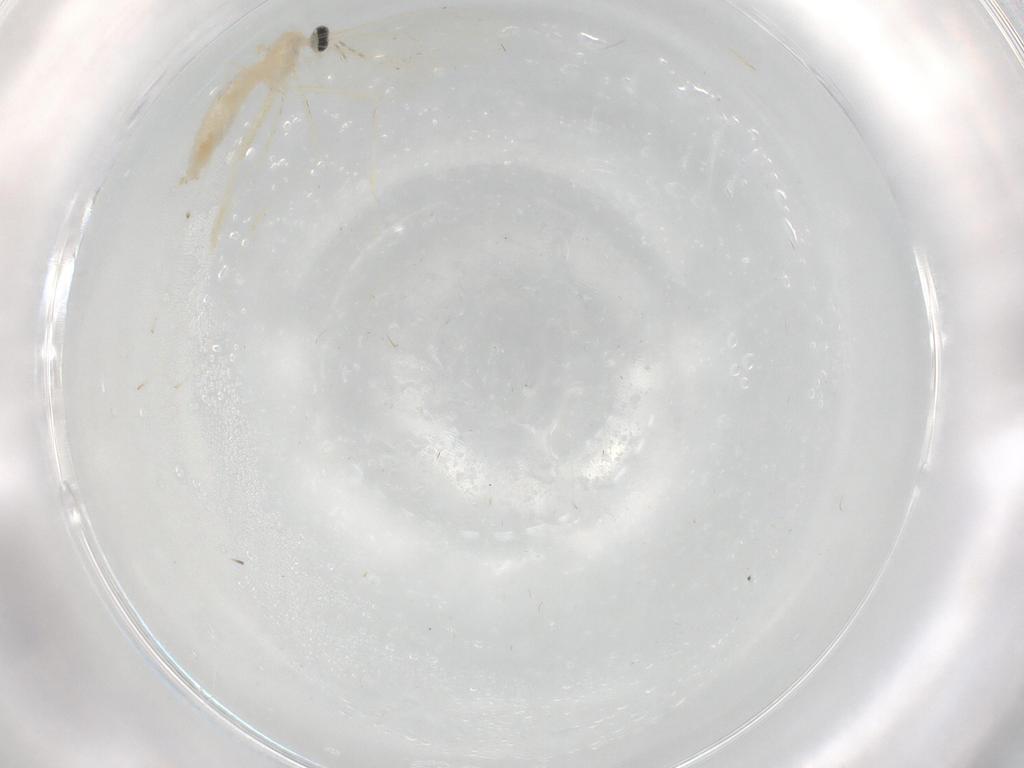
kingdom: Animalia
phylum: Arthropoda
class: Insecta
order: Diptera
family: Cecidomyiidae
